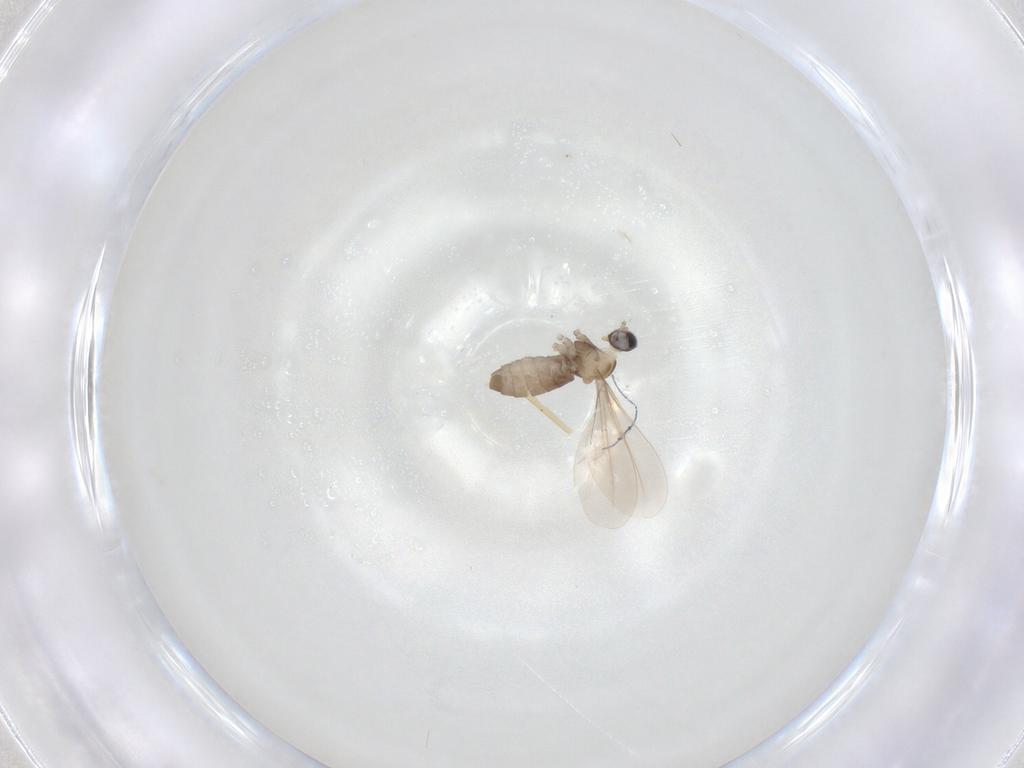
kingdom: Animalia
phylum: Arthropoda
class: Insecta
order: Diptera
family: Cecidomyiidae
